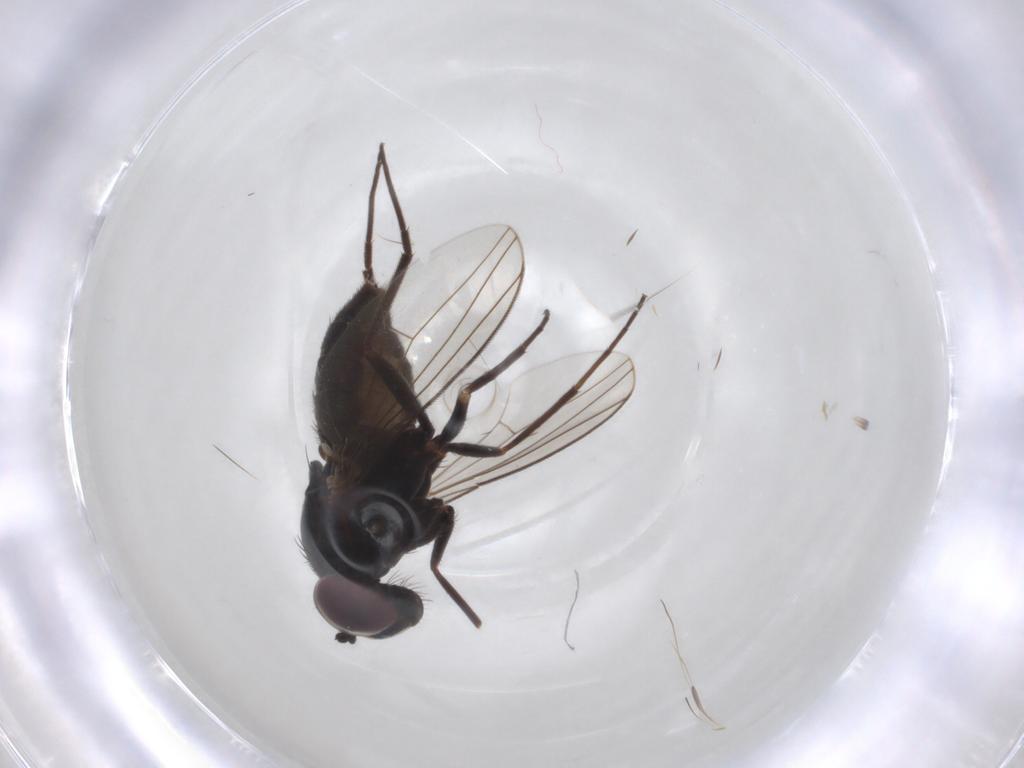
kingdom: Animalia
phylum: Arthropoda
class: Insecta
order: Diptera
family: Dolichopodidae
